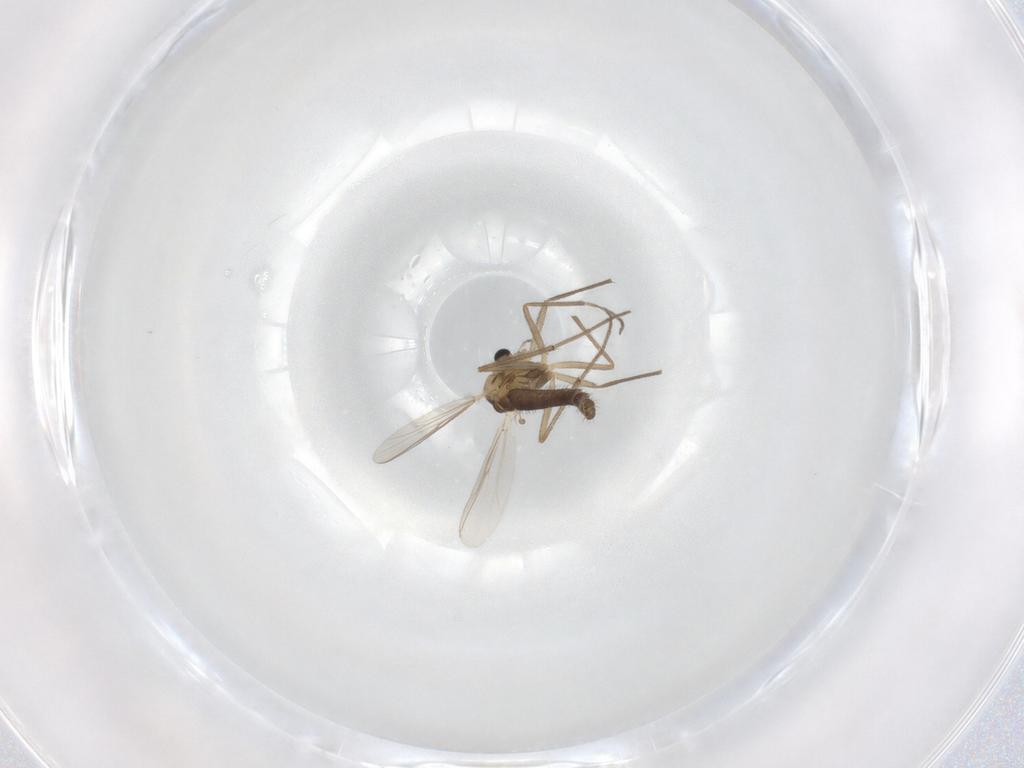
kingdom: Animalia
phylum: Arthropoda
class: Insecta
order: Diptera
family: Chironomidae
